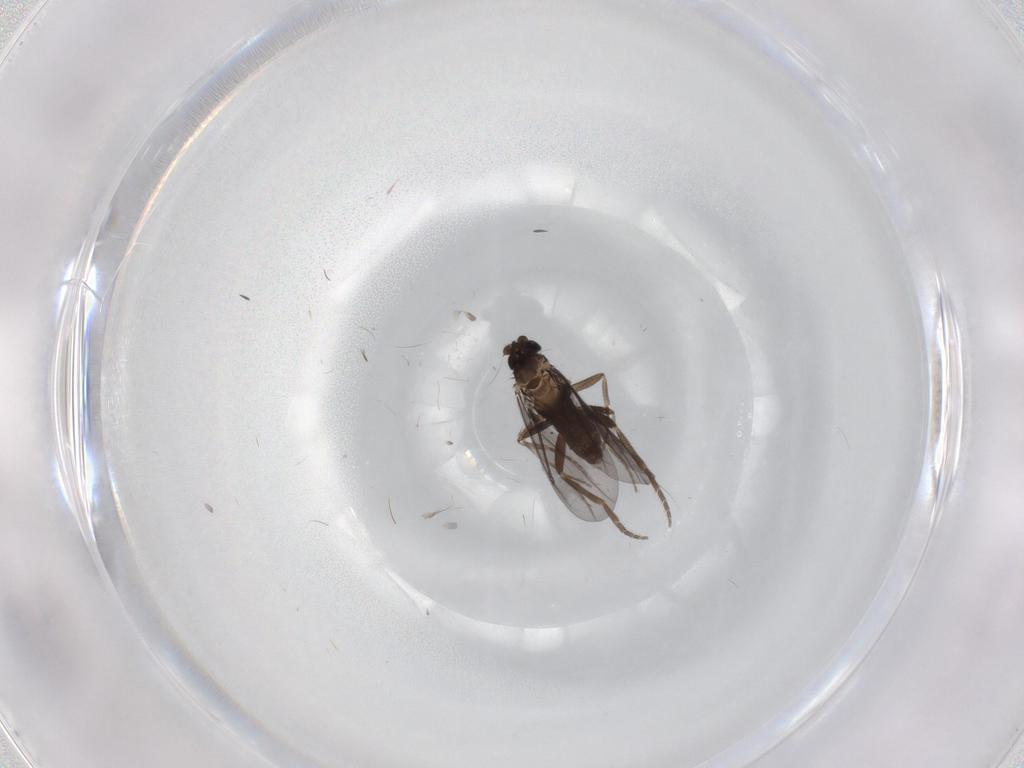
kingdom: Animalia
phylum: Arthropoda
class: Insecta
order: Diptera
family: Phoridae
